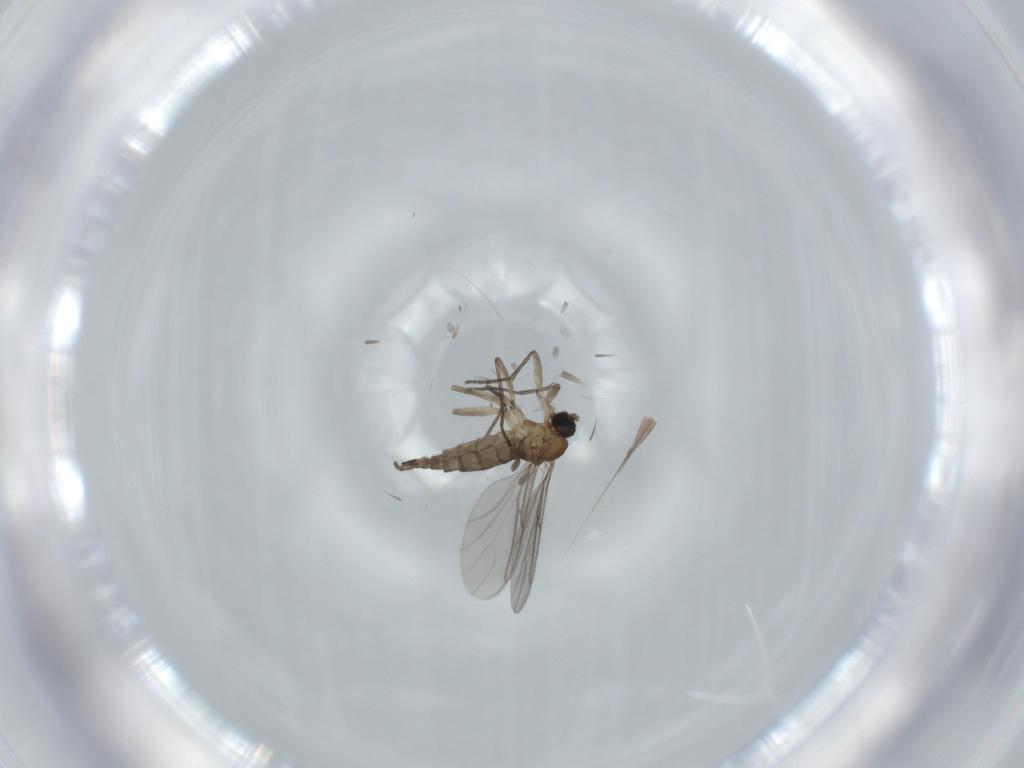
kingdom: Animalia
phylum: Arthropoda
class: Insecta
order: Diptera
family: Sciaridae
